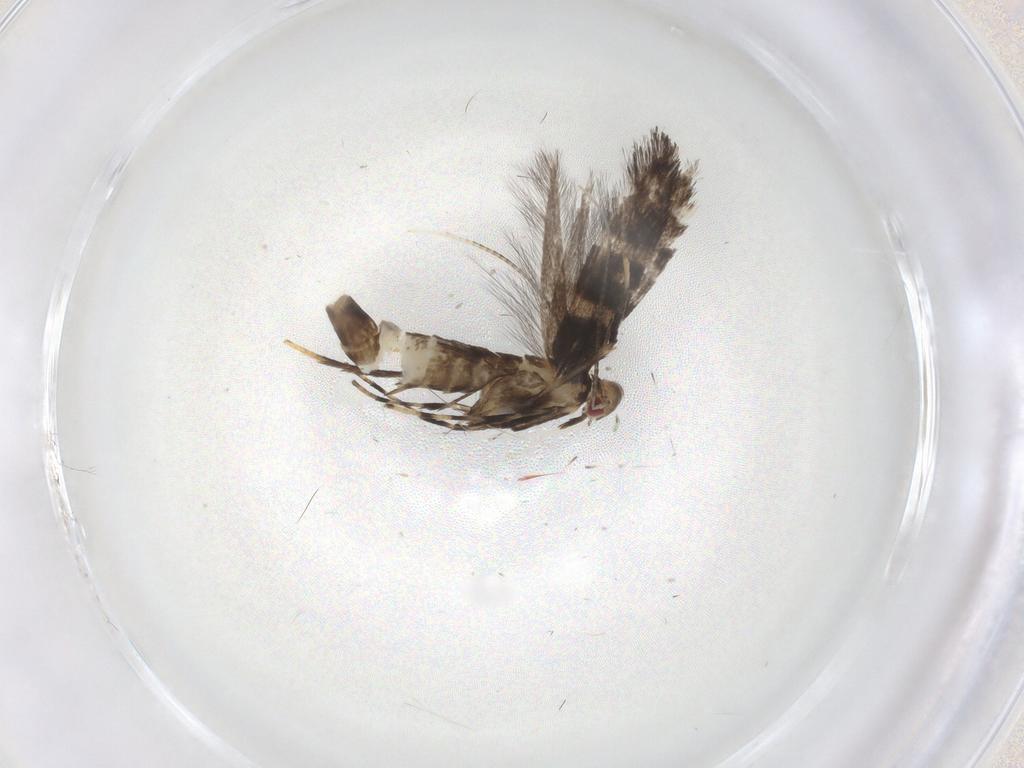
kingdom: Animalia
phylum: Arthropoda
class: Insecta
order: Lepidoptera
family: Gracillariidae
